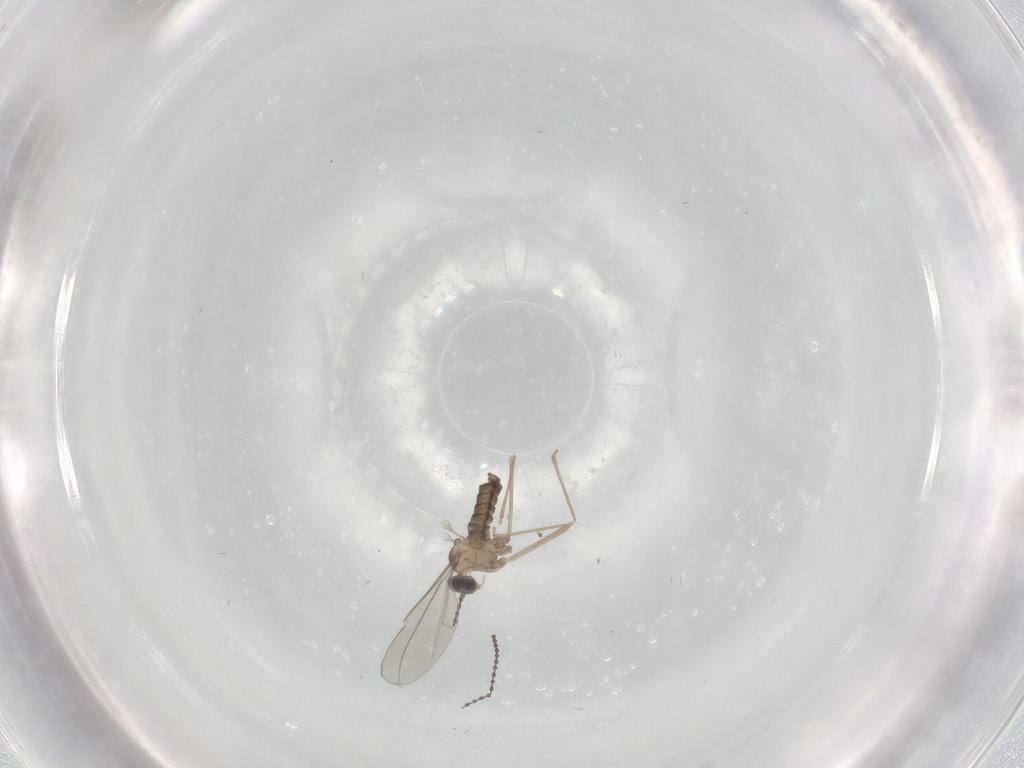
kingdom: Animalia
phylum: Arthropoda
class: Insecta
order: Diptera
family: Cecidomyiidae
